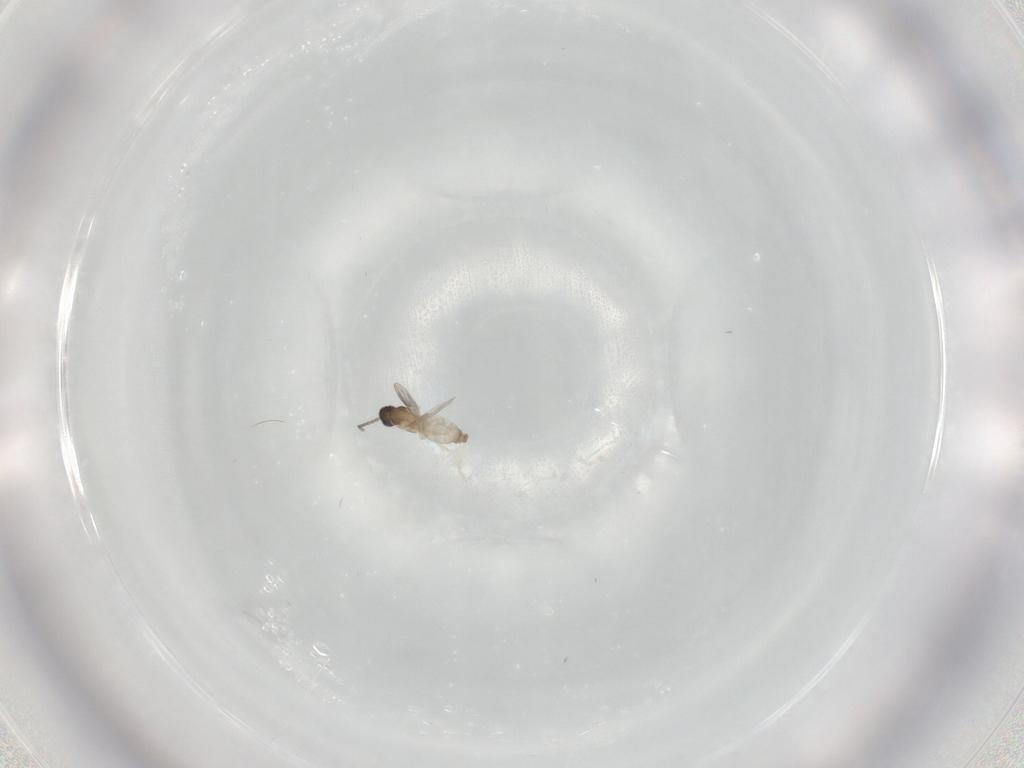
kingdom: Animalia
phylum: Arthropoda
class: Insecta
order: Diptera
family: Cecidomyiidae
